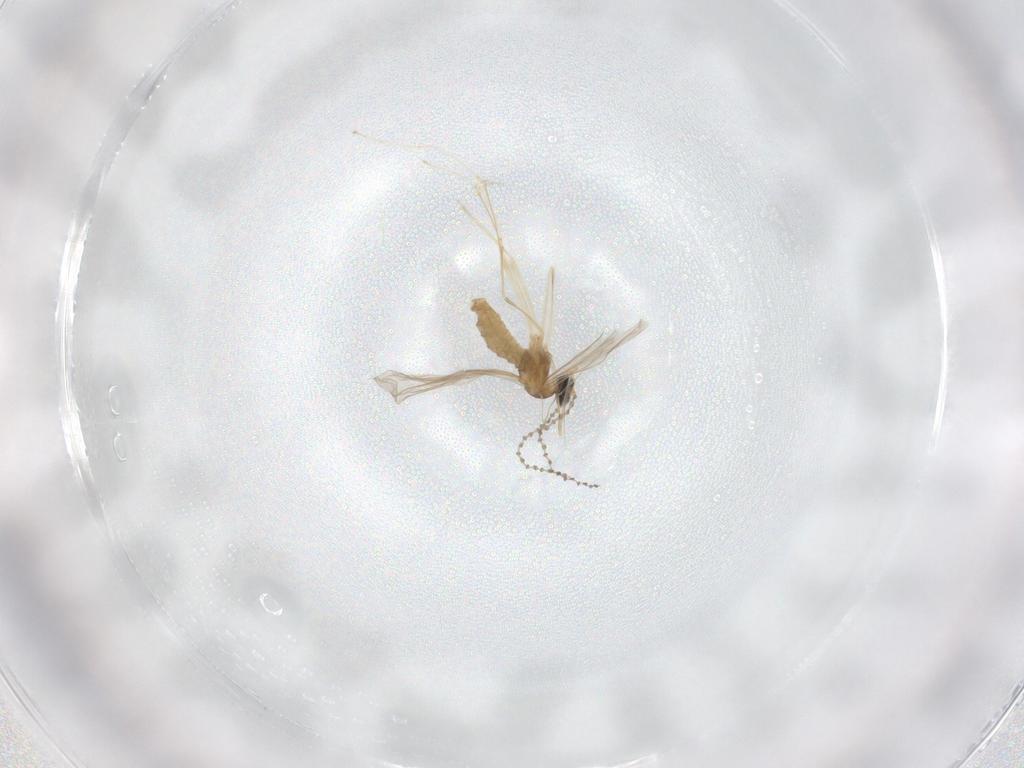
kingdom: Animalia
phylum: Arthropoda
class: Insecta
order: Diptera
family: Cecidomyiidae
